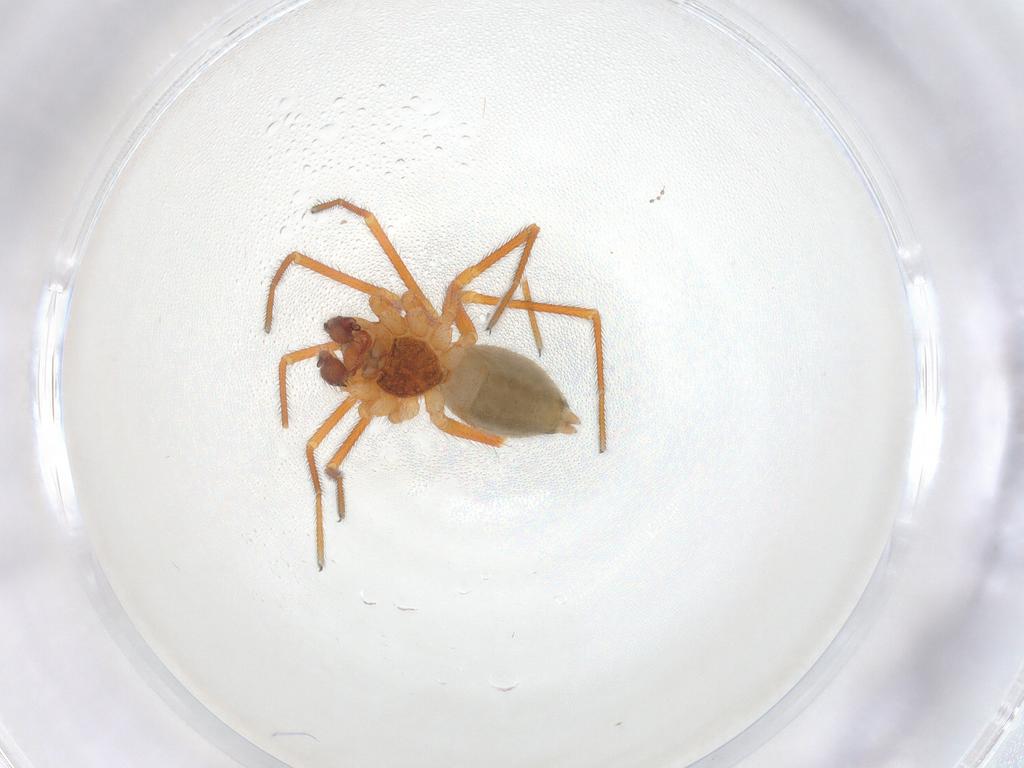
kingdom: Animalia
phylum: Arthropoda
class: Arachnida
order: Araneae
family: Linyphiidae
